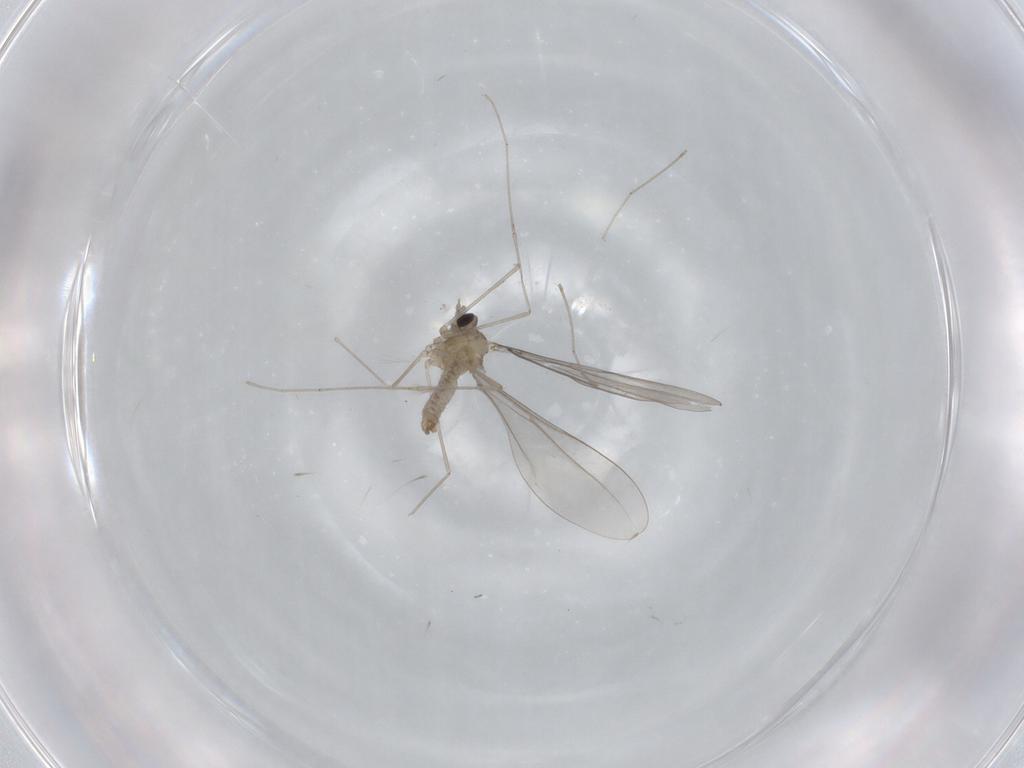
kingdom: Animalia
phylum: Arthropoda
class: Insecta
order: Diptera
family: Cecidomyiidae
